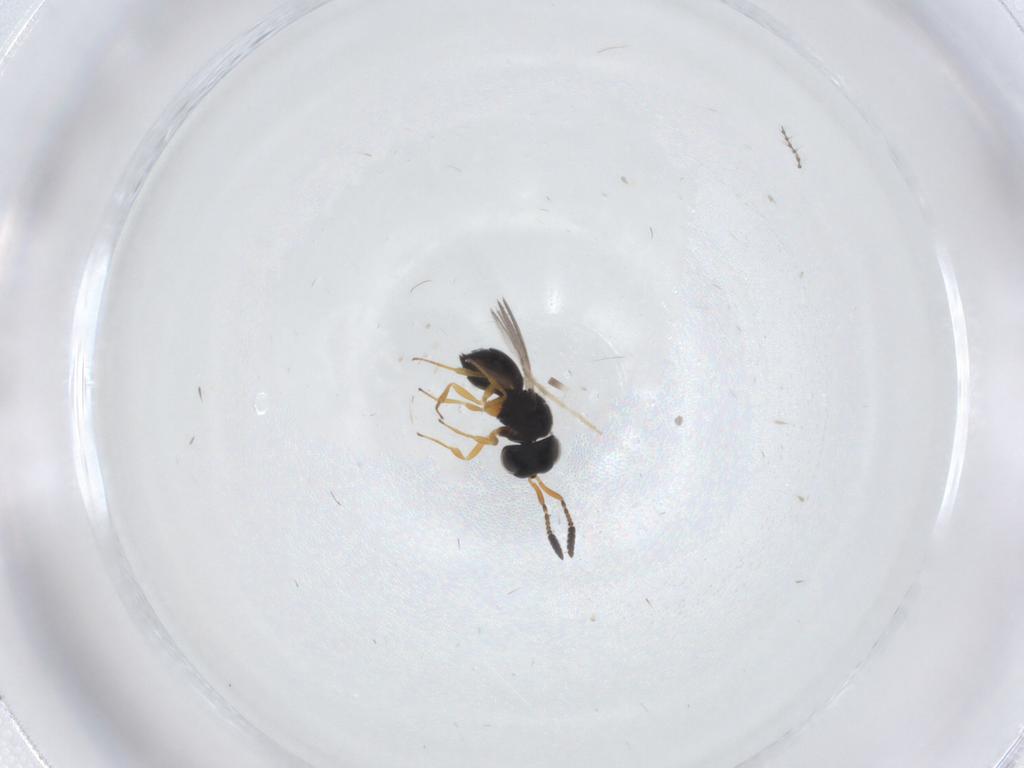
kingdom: Animalia
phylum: Arthropoda
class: Insecta
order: Hymenoptera
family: Scelionidae
